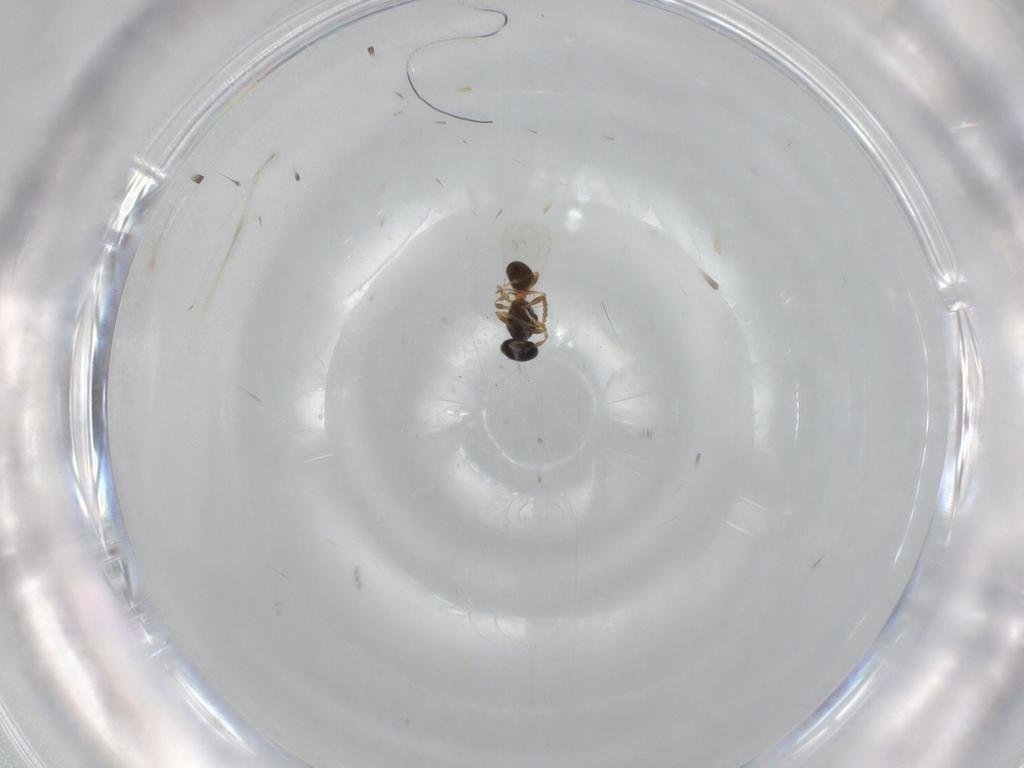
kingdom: Animalia
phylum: Arthropoda
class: Insecta
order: Hymenoptera
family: Platygastridae
